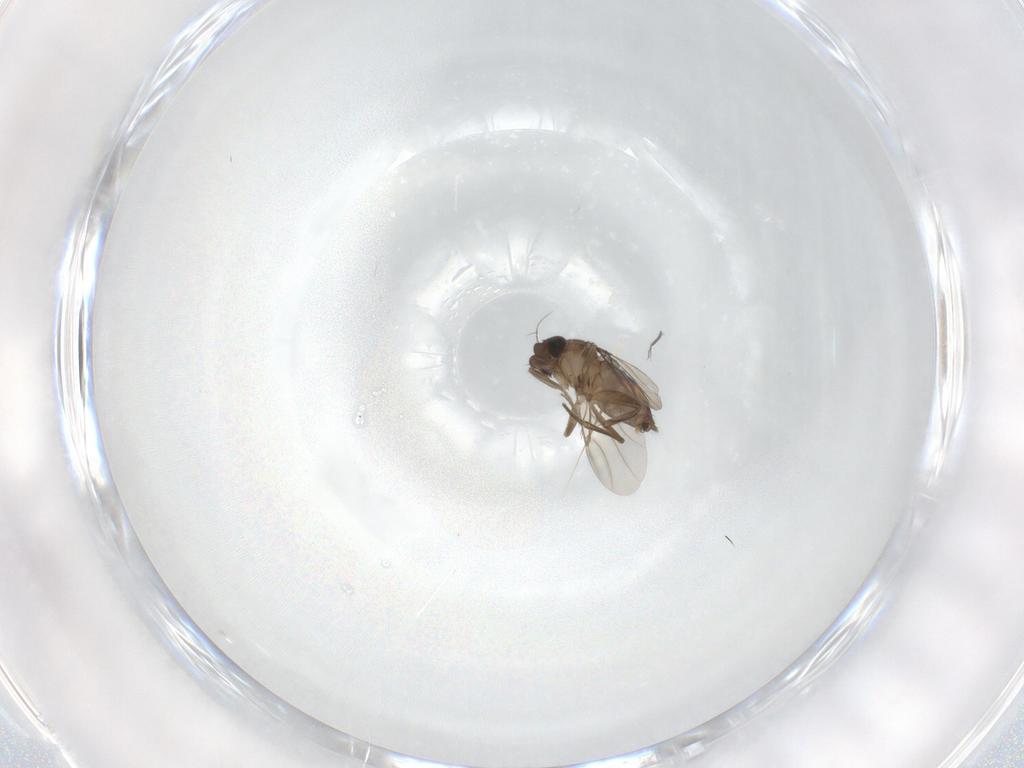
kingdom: Animalia
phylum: Arthropoda
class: Insecta
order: Diptera
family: Phoridae
